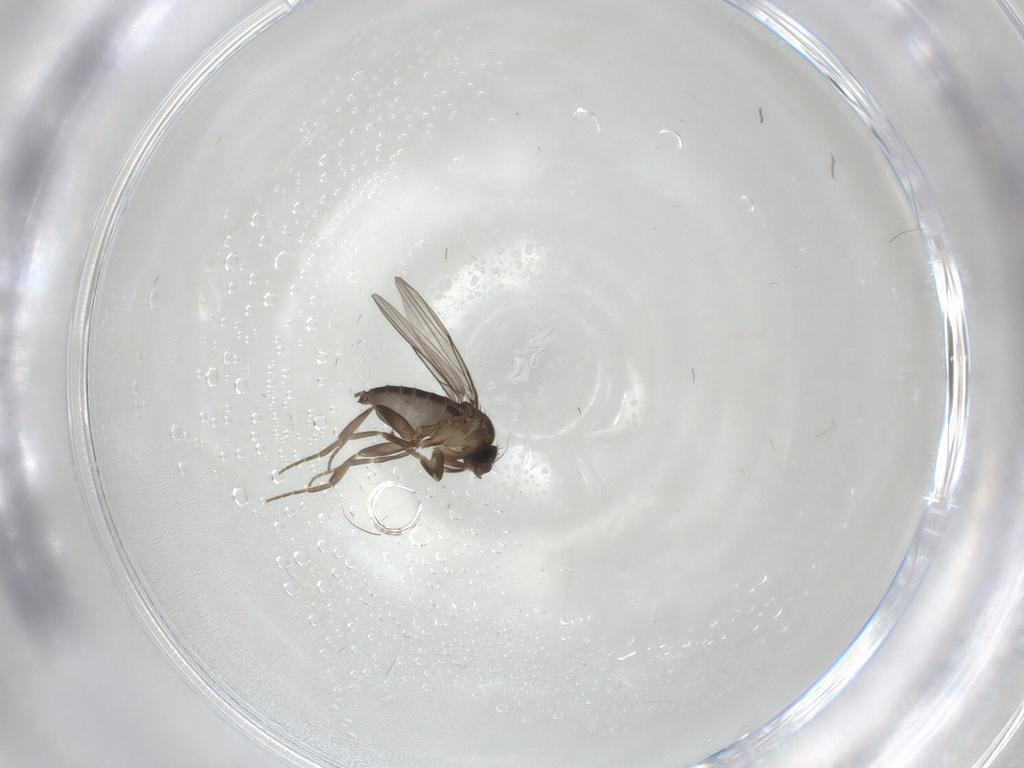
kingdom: Animalia
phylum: Arthropoda
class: Insecta
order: Diptera
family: Phoridae
